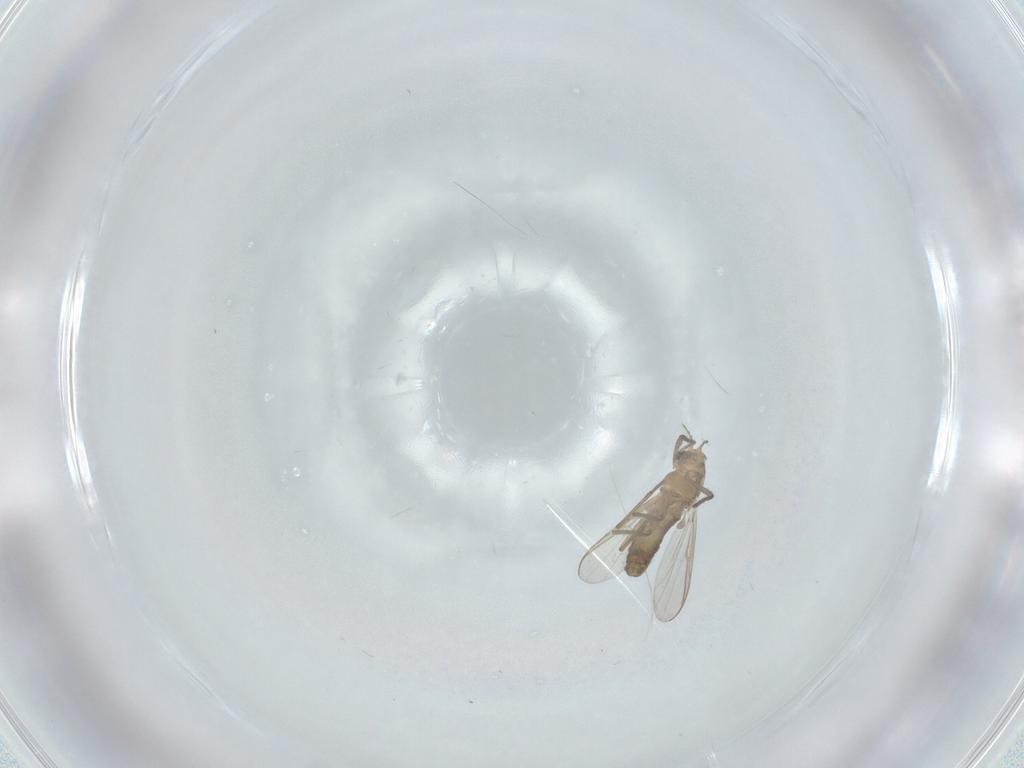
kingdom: Animalia
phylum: Arthropoda
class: Insecta
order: Diptera
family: Chironomidae
